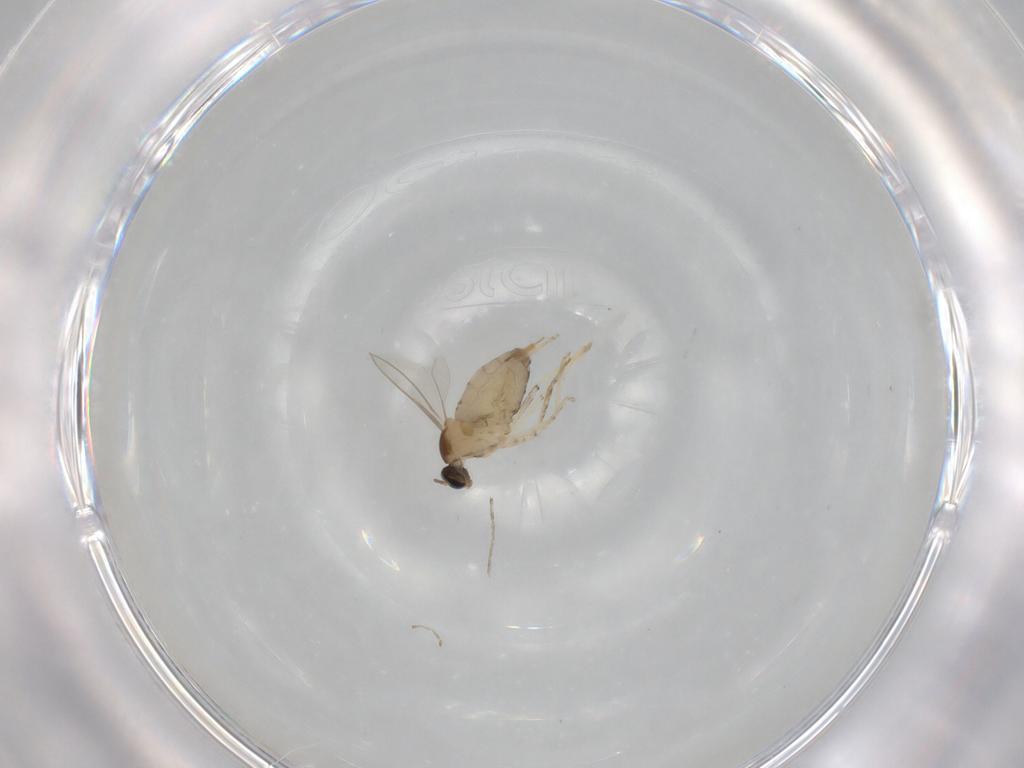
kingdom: Animalia
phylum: Arthropoda
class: Insecta
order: Diptera
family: Cecidomyiidae
